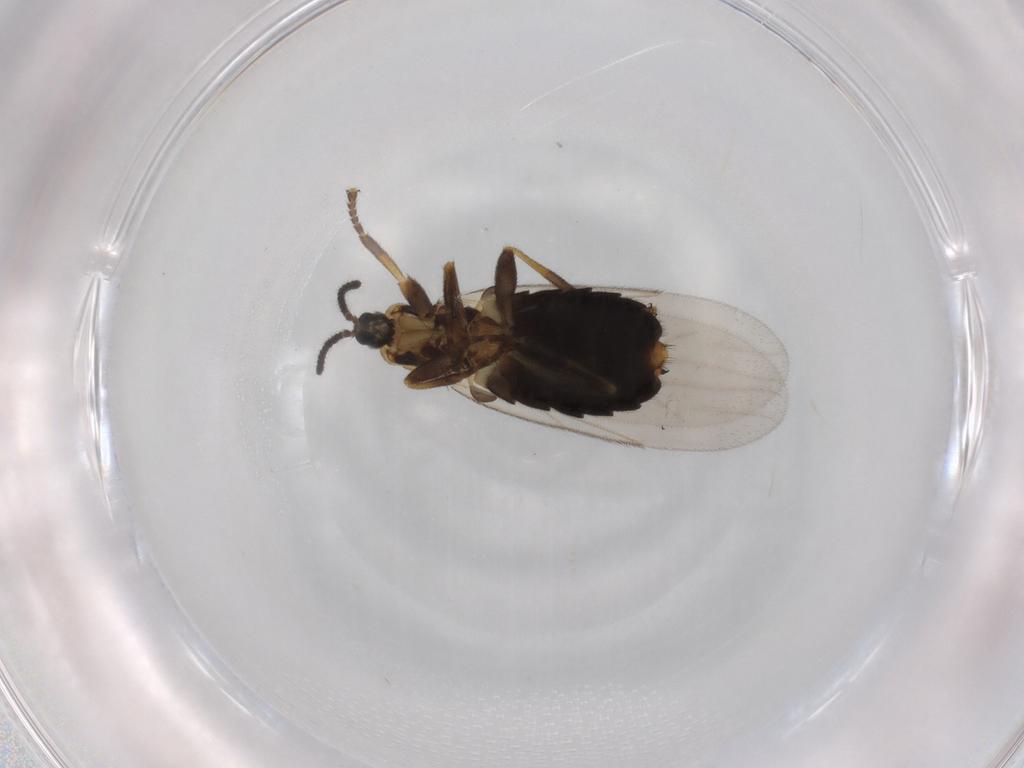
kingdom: Animalia
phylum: Arthropoda
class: Insecta
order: Diptera
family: Scatopsidae
